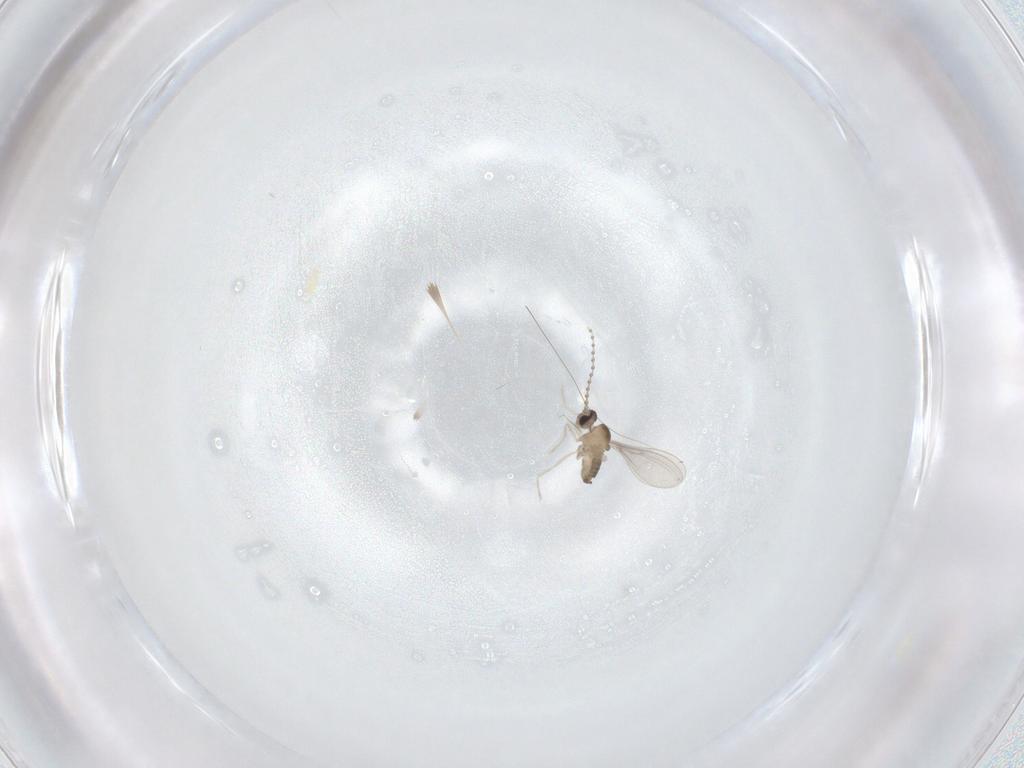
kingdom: Animalia
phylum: Arthropoda
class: Insecta
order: Diptera
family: Cecidomyiidae
